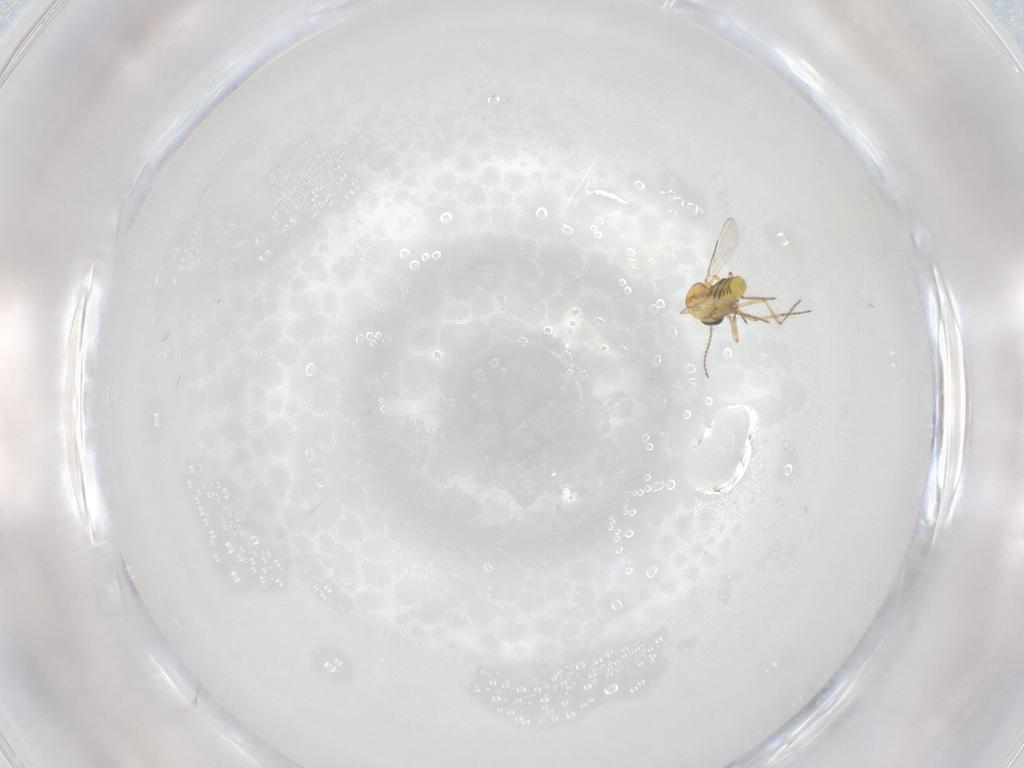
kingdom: Animalia
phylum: Arthropoda
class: Insecta
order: Diptera
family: Ceratopogonidae
